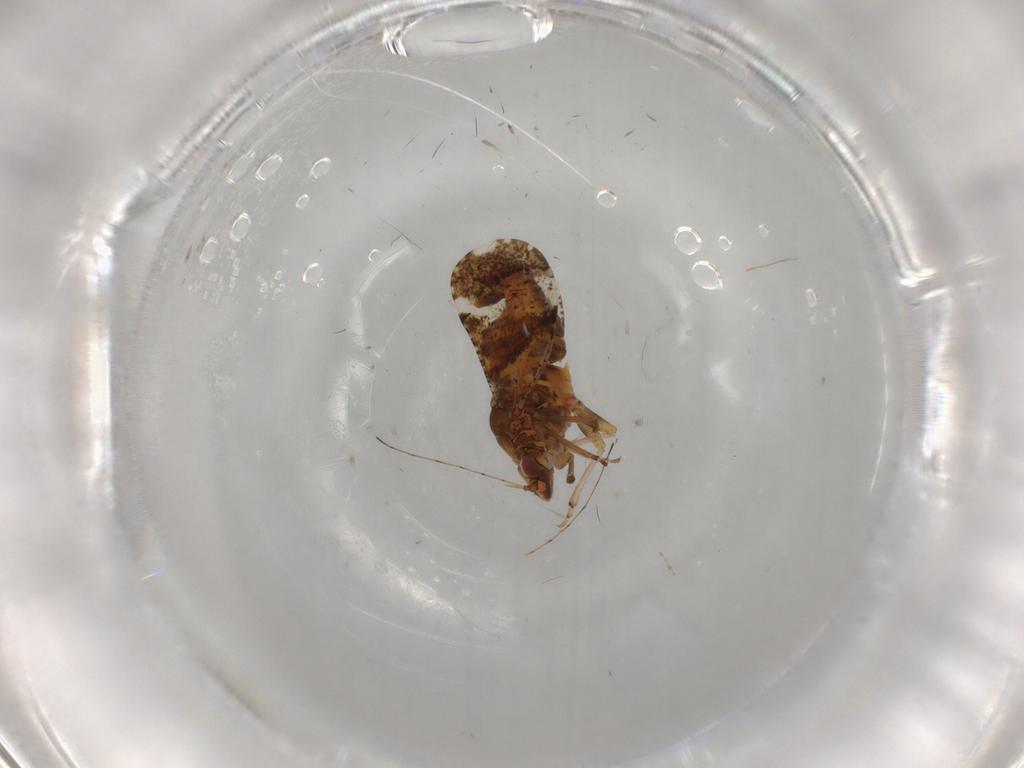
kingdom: Animalia
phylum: Arthropoda
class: Insecta
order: Hemiptera
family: Psyllidae
